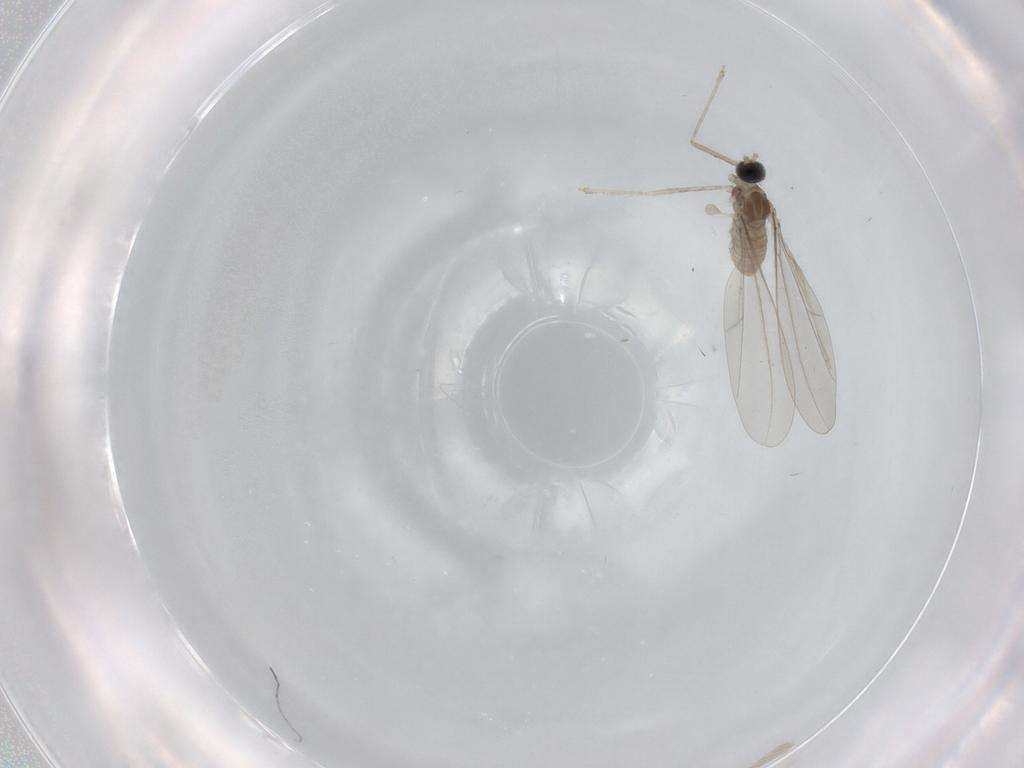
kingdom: Animalia
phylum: Arthropoda
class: Insecta
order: Diptera
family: Cecidomyiidae
